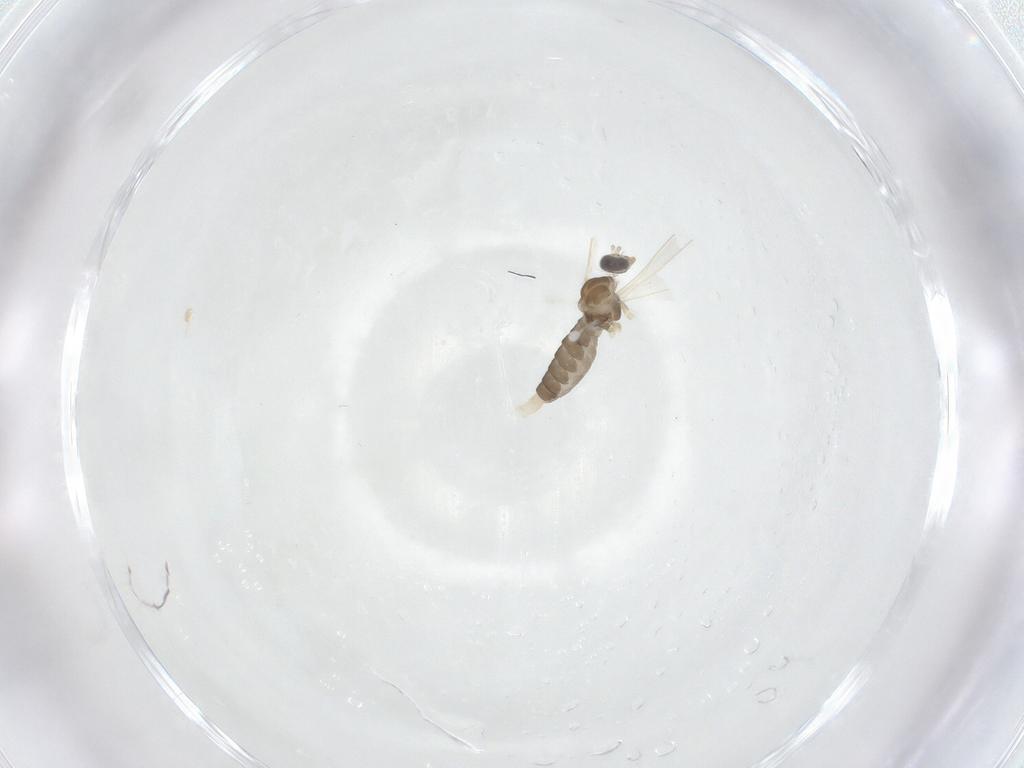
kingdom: Animalia
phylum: Arthropoda
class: Insecta
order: Diptera
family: Cecidomyiidae
